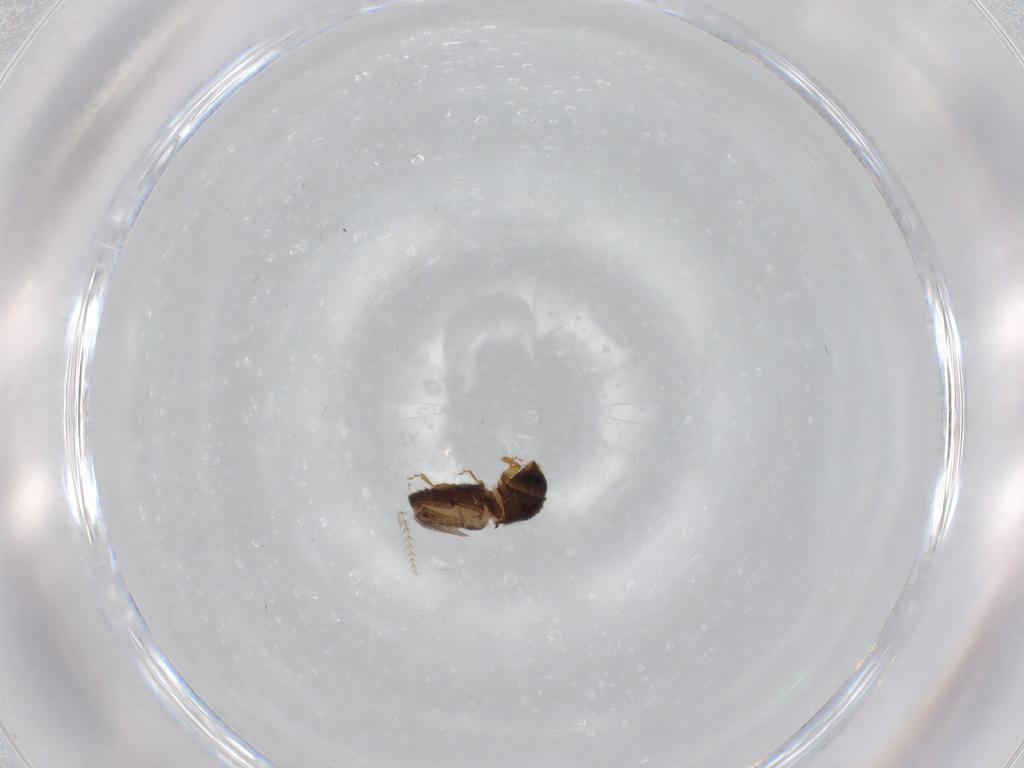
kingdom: Animalia
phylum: Arthropoda
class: Insecta
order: Coleoptera
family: Curculionidae
